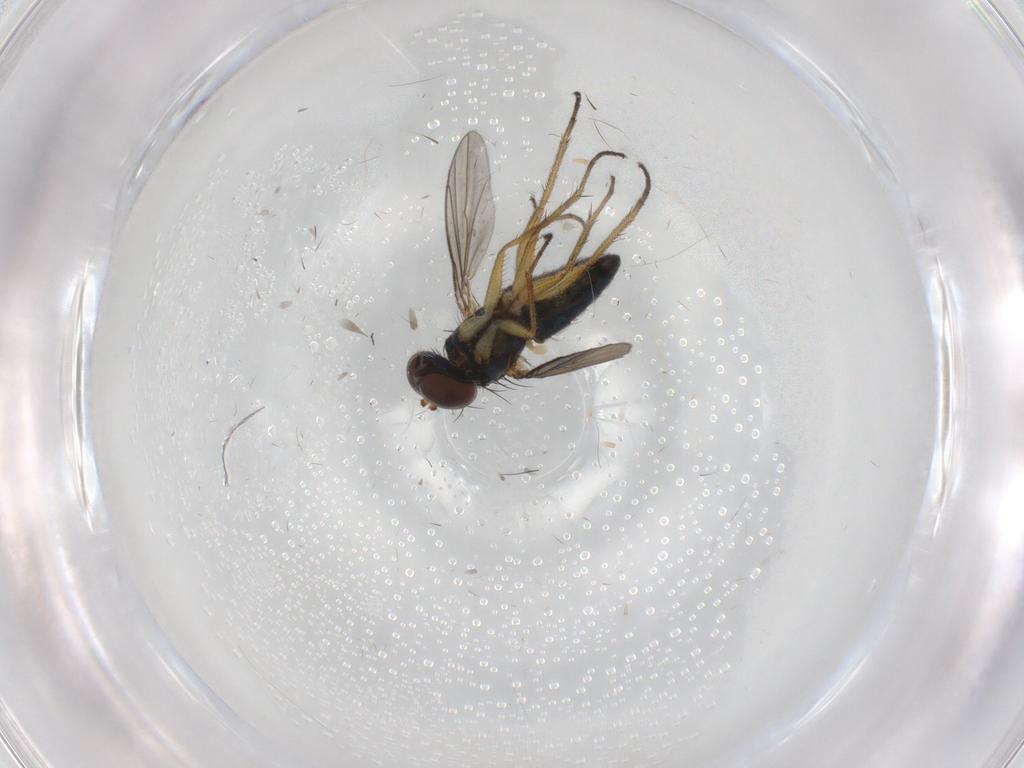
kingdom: Animalia
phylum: Arthropoda
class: Insecta
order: Diptera
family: Dolichopodidae
